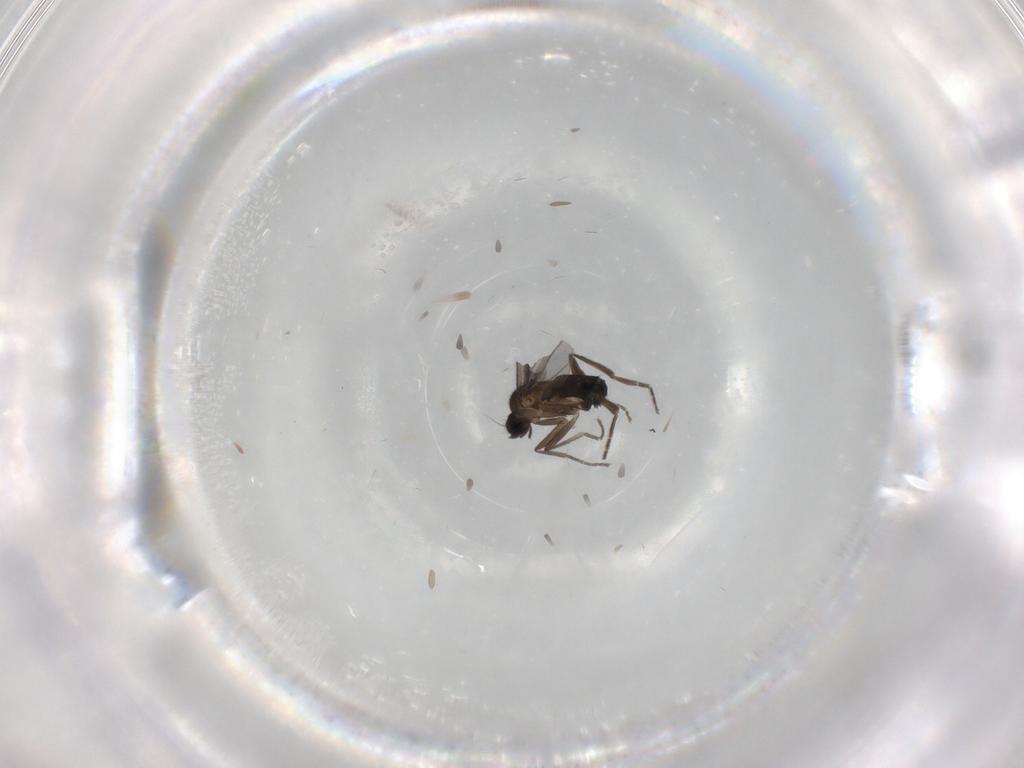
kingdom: Animalia
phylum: Arthropoda
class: Insecta
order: Diptera
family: Phoridae
